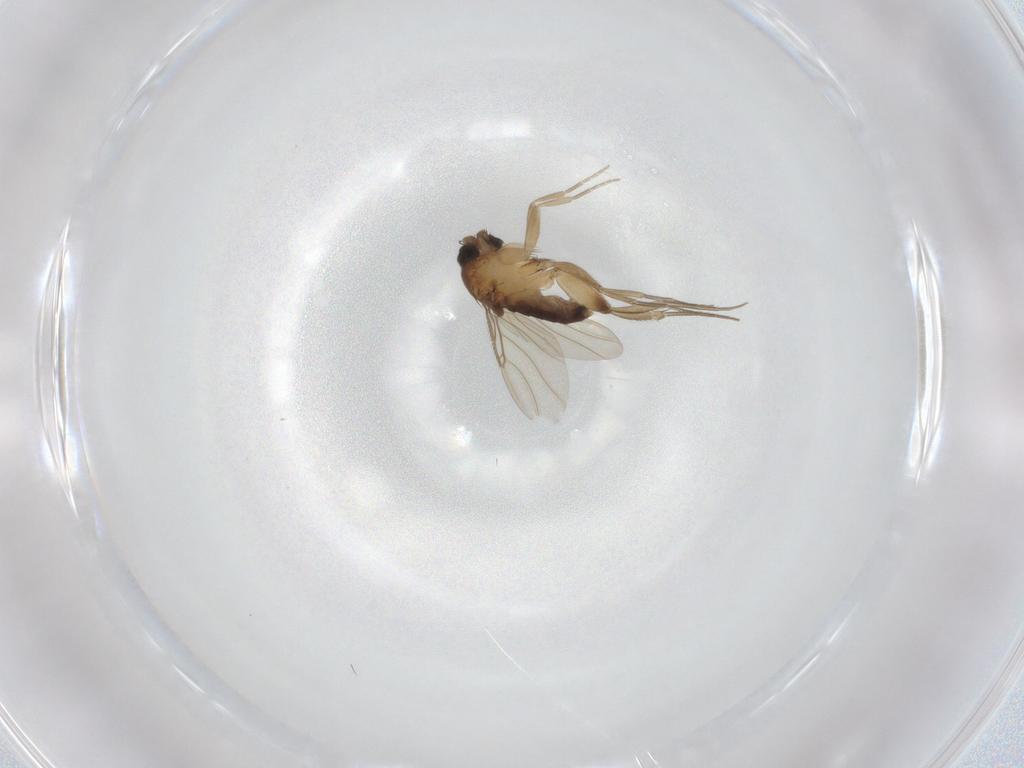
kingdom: Animalia
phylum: Arthropoda
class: Insecta
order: Diptera
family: Phoridae
